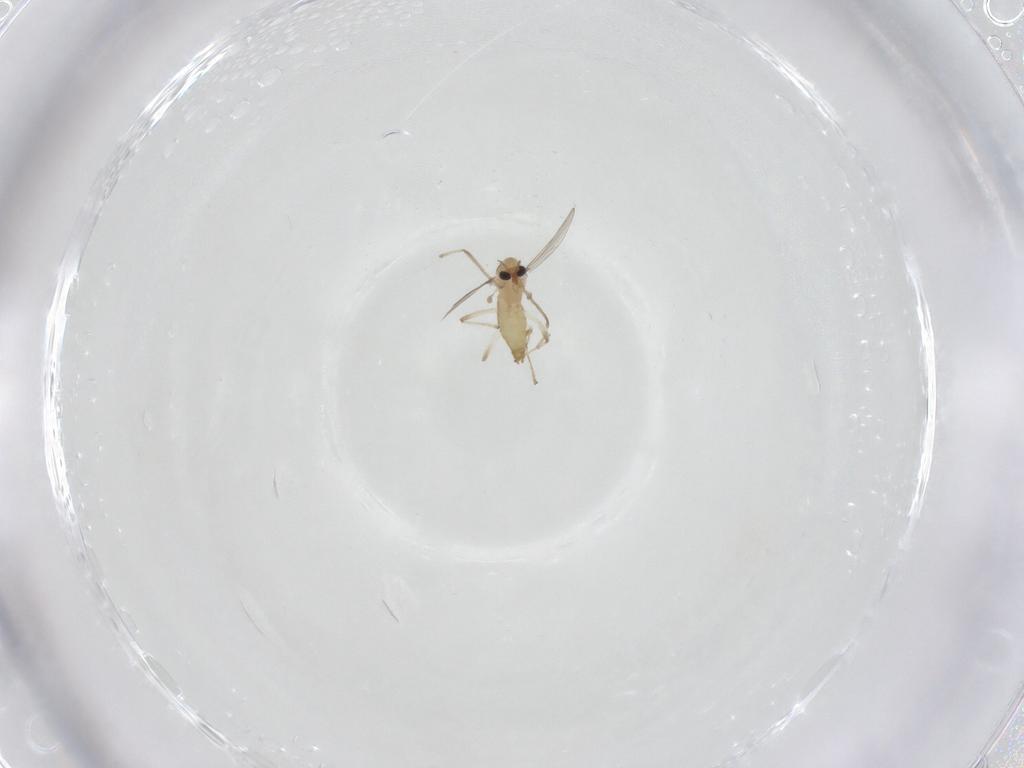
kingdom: Animalia
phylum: Arthropoda
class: Insecta
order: Diptera
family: Chironomidae
